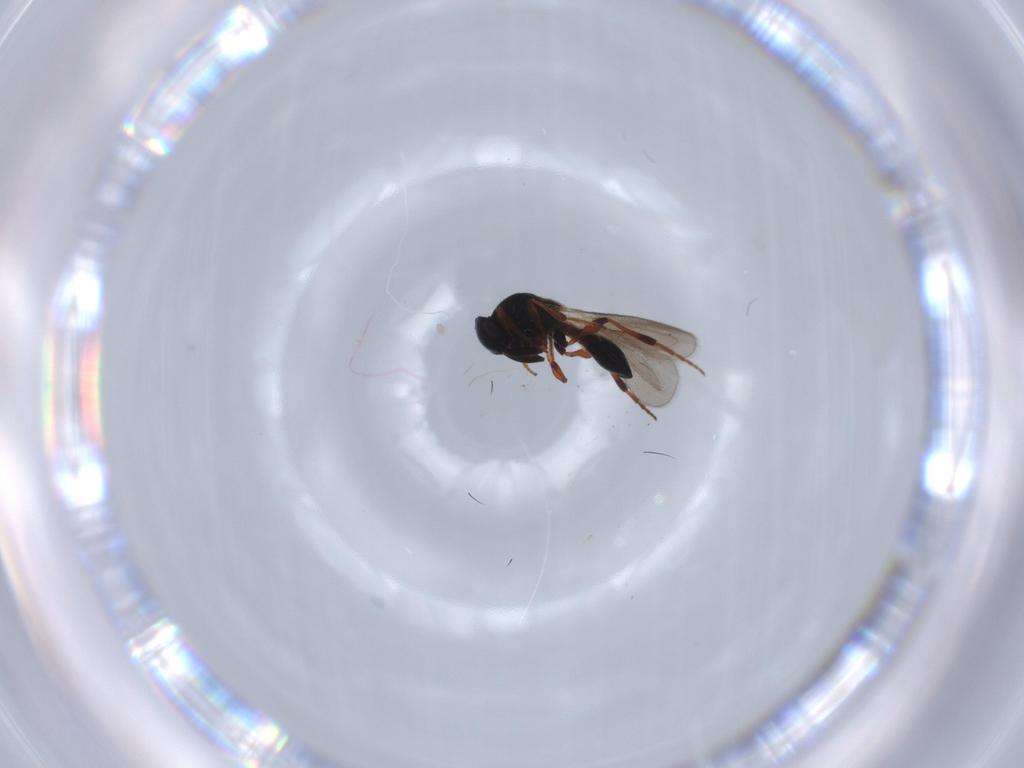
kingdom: Animalia
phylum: Arthropoda
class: Insecta
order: Hymenoptera
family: Platygastridae
